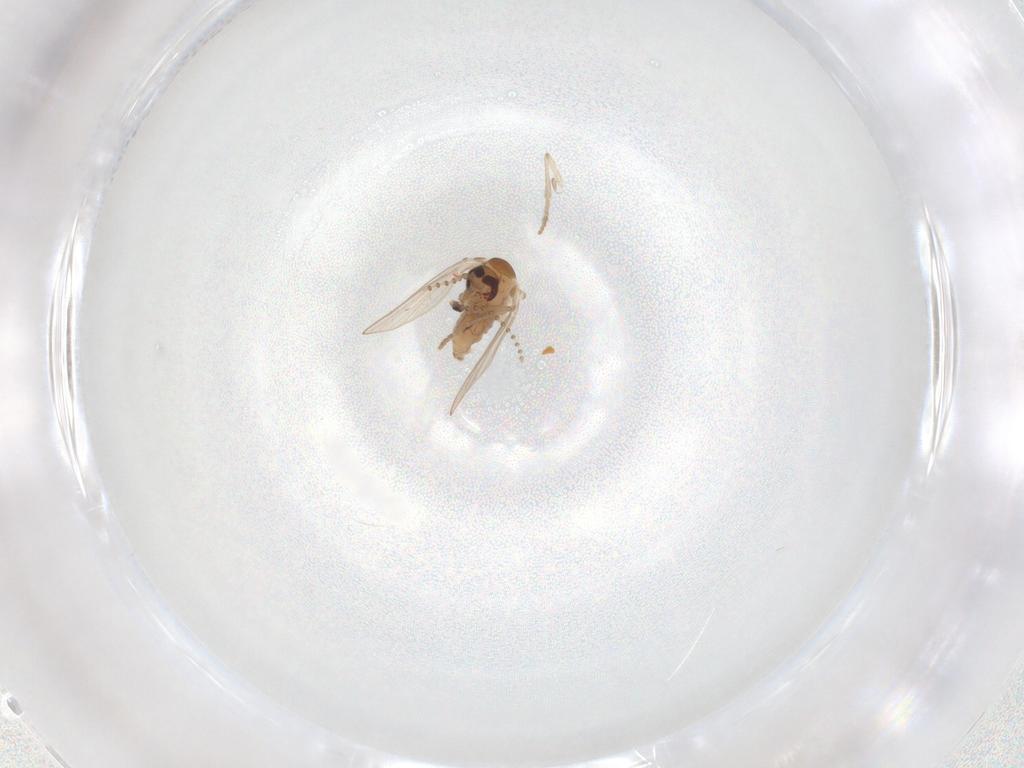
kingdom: Animalia
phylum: Arthropoda
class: Insecta
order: Diptera
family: Psychodidae
